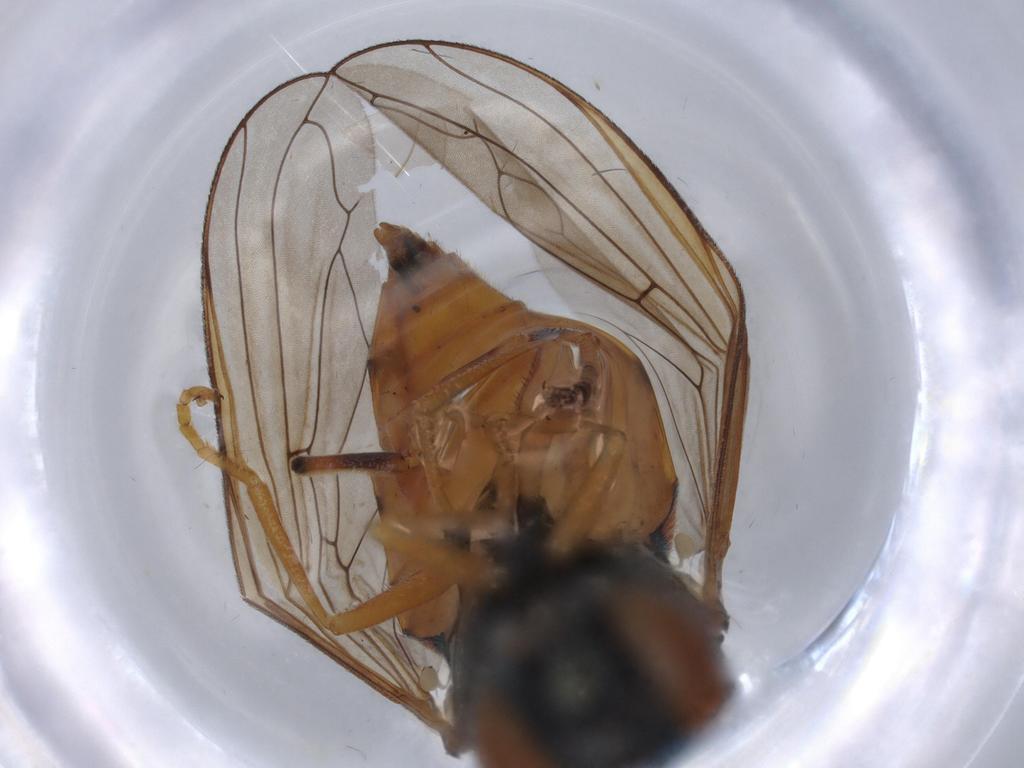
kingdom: Animalia
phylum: Arthropoda
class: Insecta
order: Diptera
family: Syrphidae
